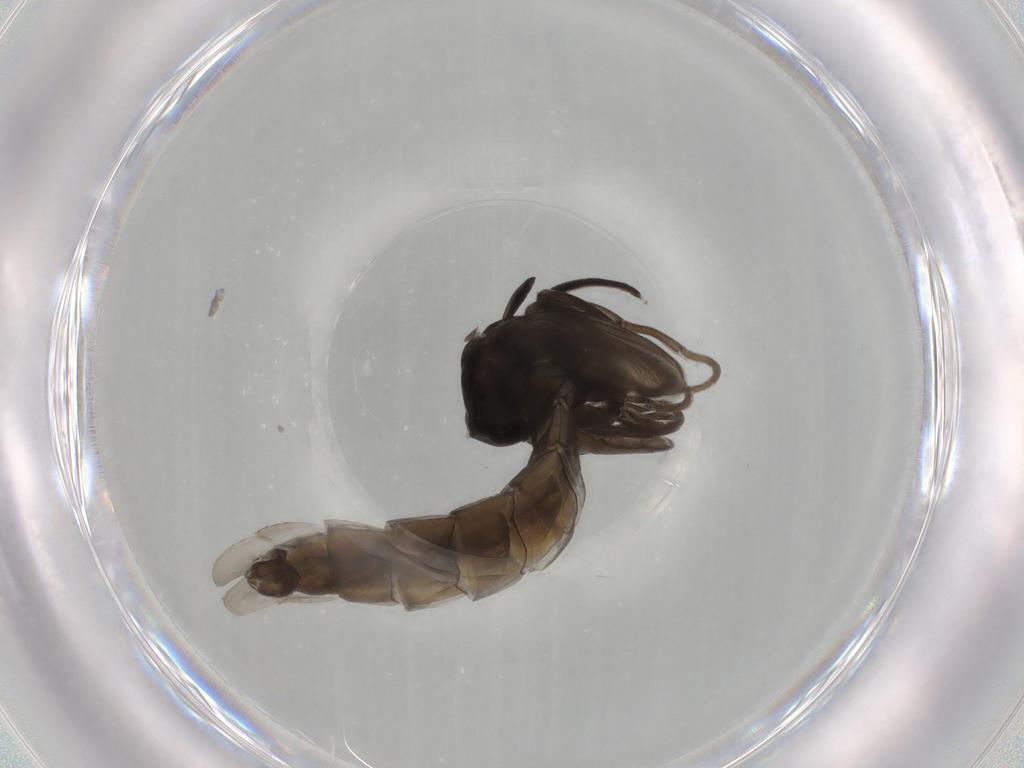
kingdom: Animalia
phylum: Arthropoda
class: Insecta
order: Diptera
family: Chironomidae
